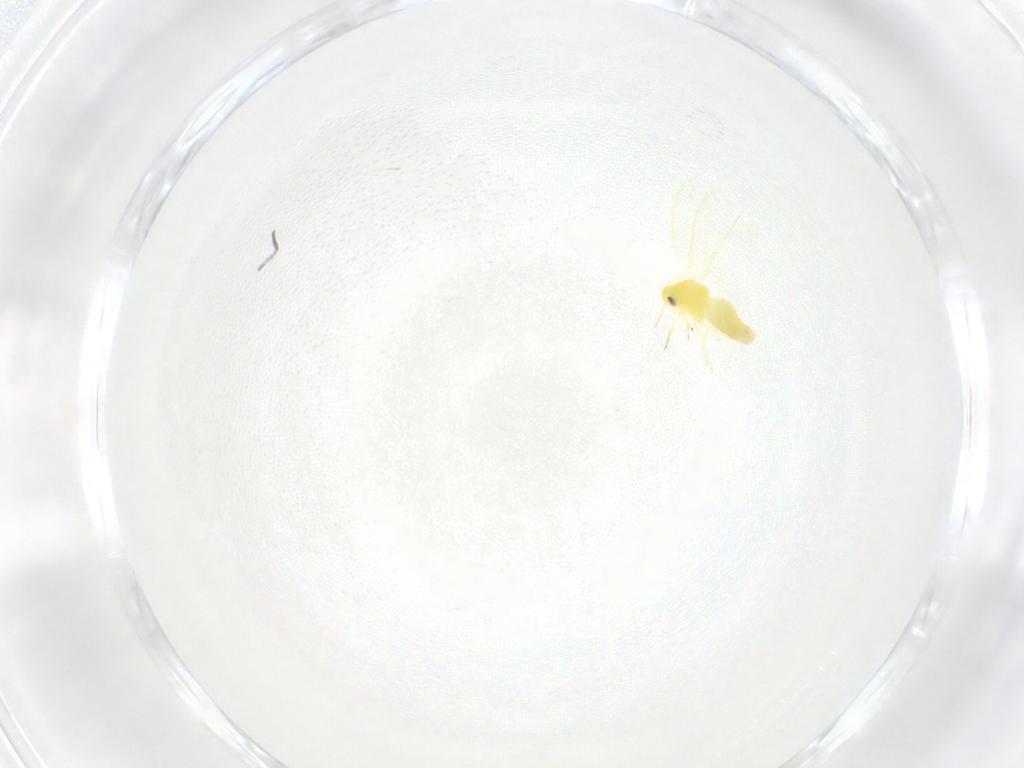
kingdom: Animalia
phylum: Arthropoda
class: Insecta
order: Hemiptera
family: Aleyrodidae
